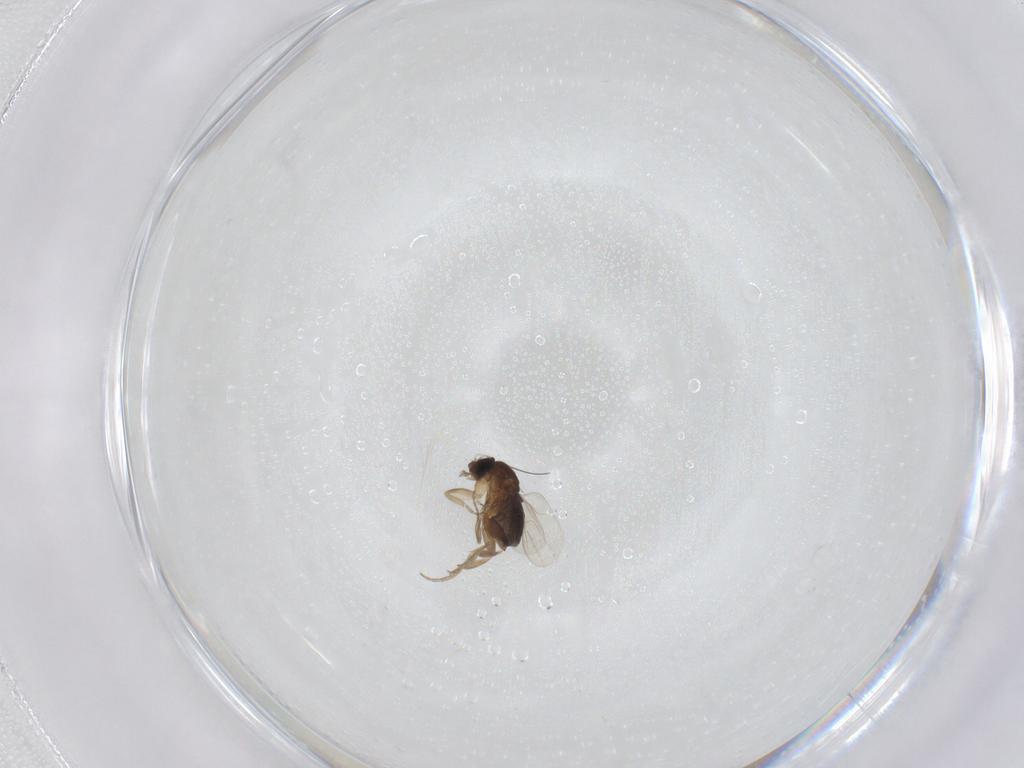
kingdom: Animalia
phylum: Arthropoda
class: Insecta
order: Diptera
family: Phoridae
